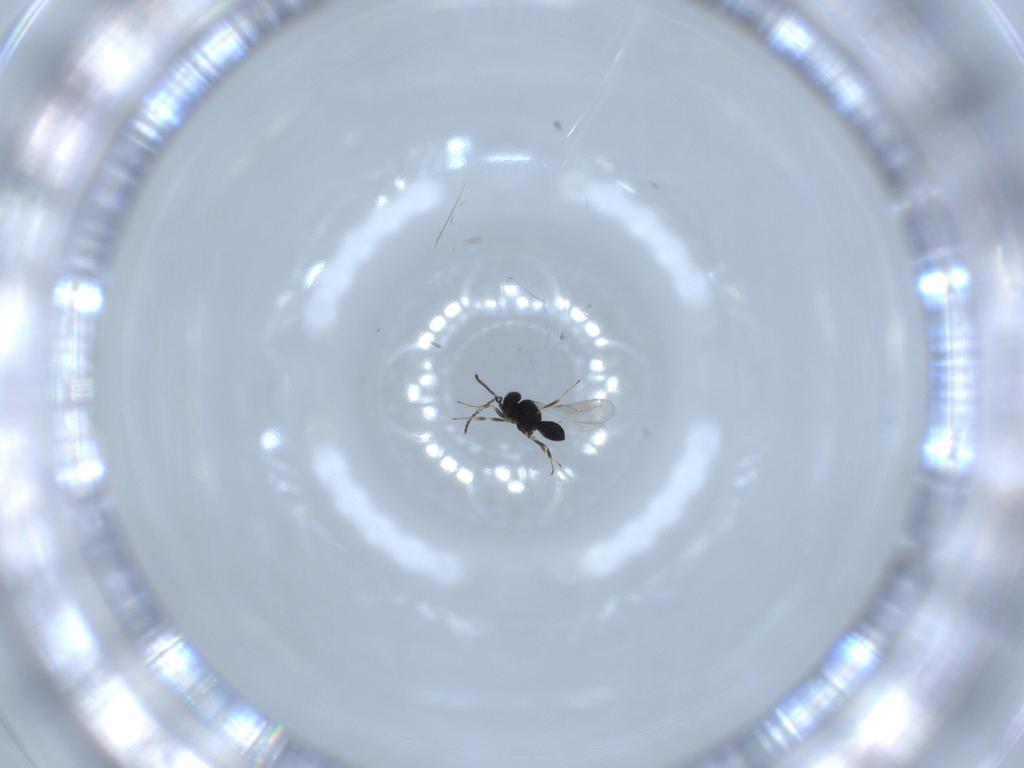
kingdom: Animalia
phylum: Arthropoda
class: Insecta
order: Hymenoptera
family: Scelionidae
